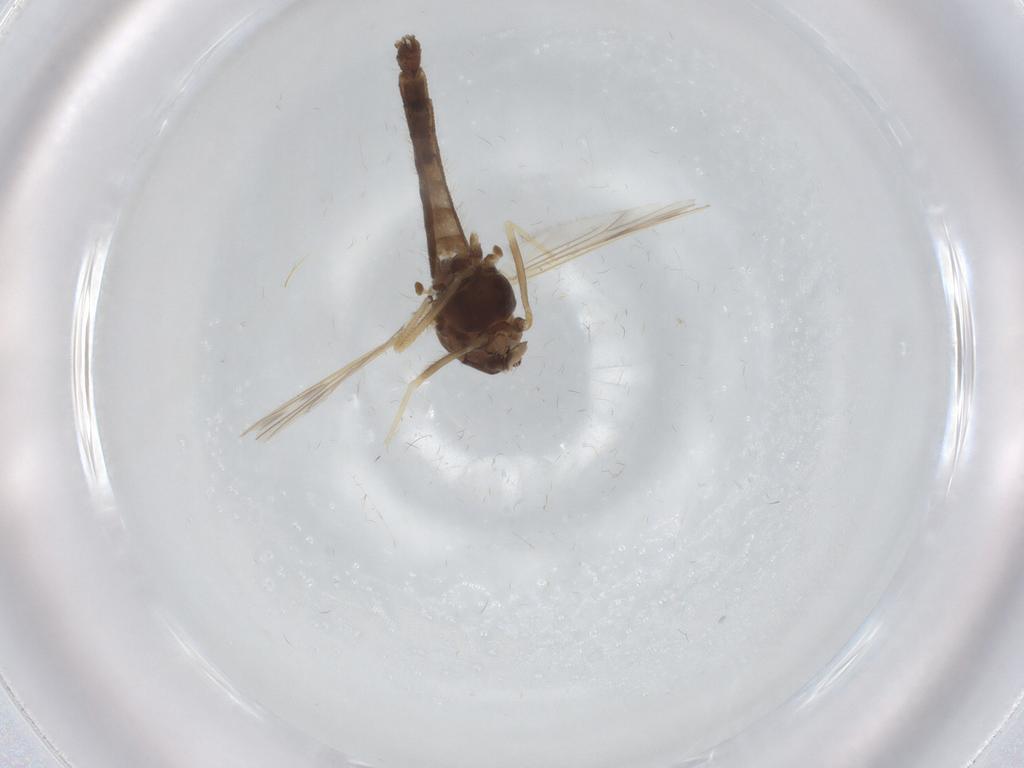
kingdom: Animalia
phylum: Arthropoda
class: Insecta
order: Diptera
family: Chironomidae
